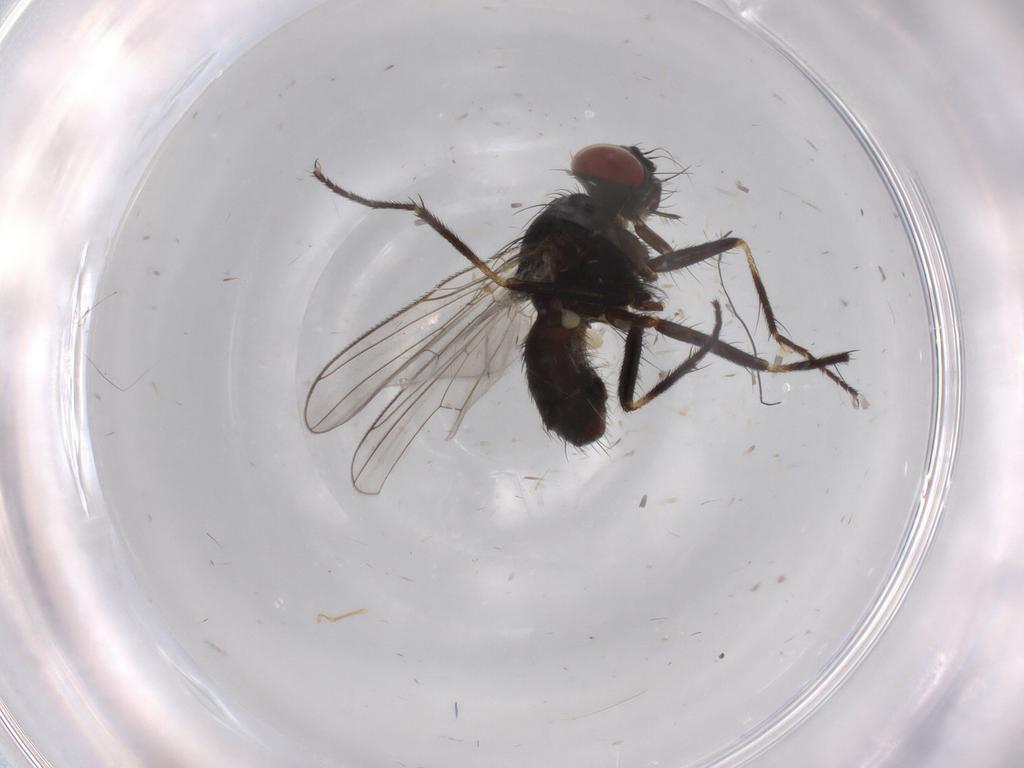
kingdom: Animalia
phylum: Arthropoda
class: Insecta
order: Diptera
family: Muscidae
